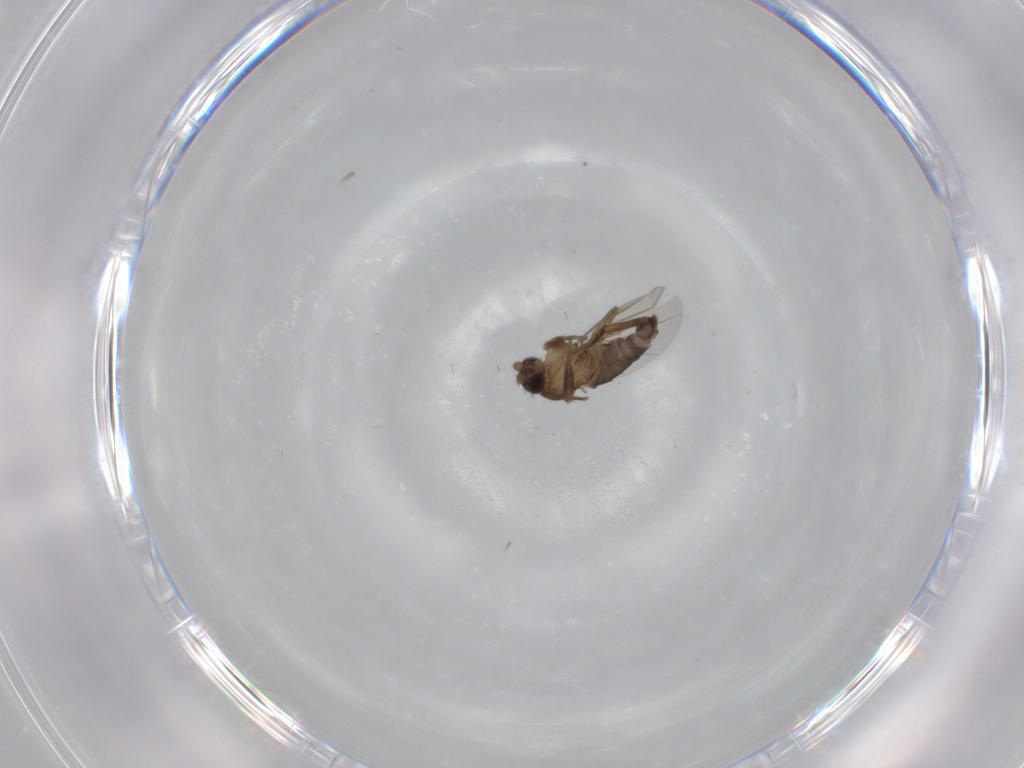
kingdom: Animalia
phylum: Arthropoda
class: Insecta
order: Diptera
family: Phoridae
